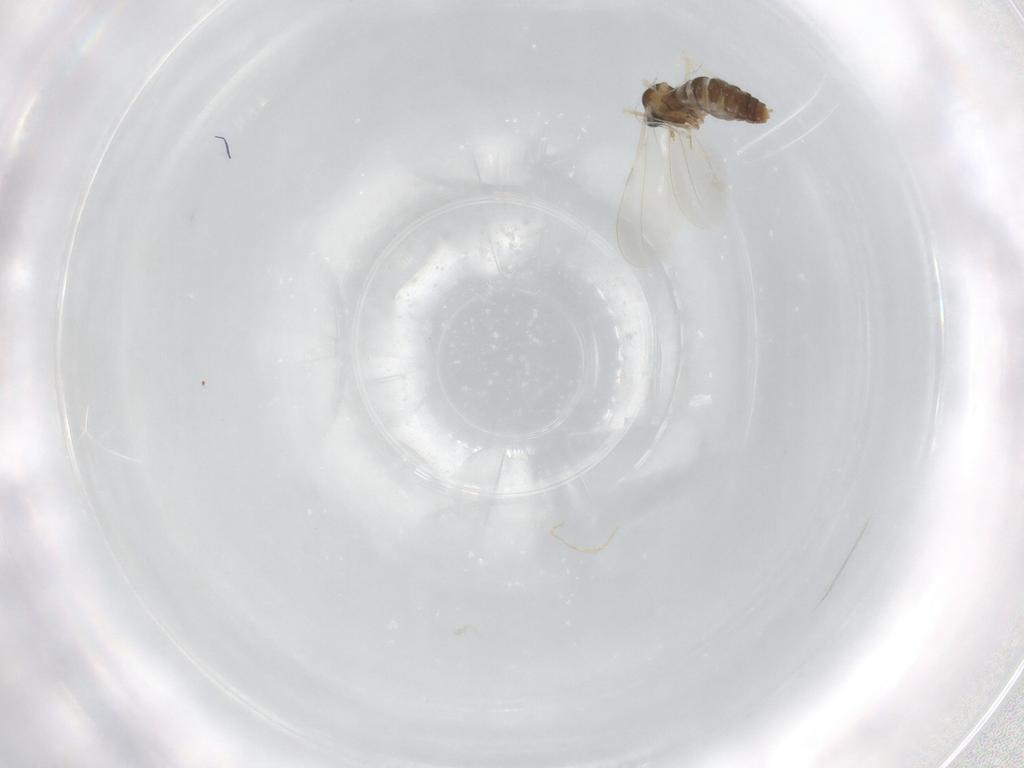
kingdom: Animalia
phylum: Arthropoda
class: Insecta
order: Diptera
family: Cecidomyiidae
